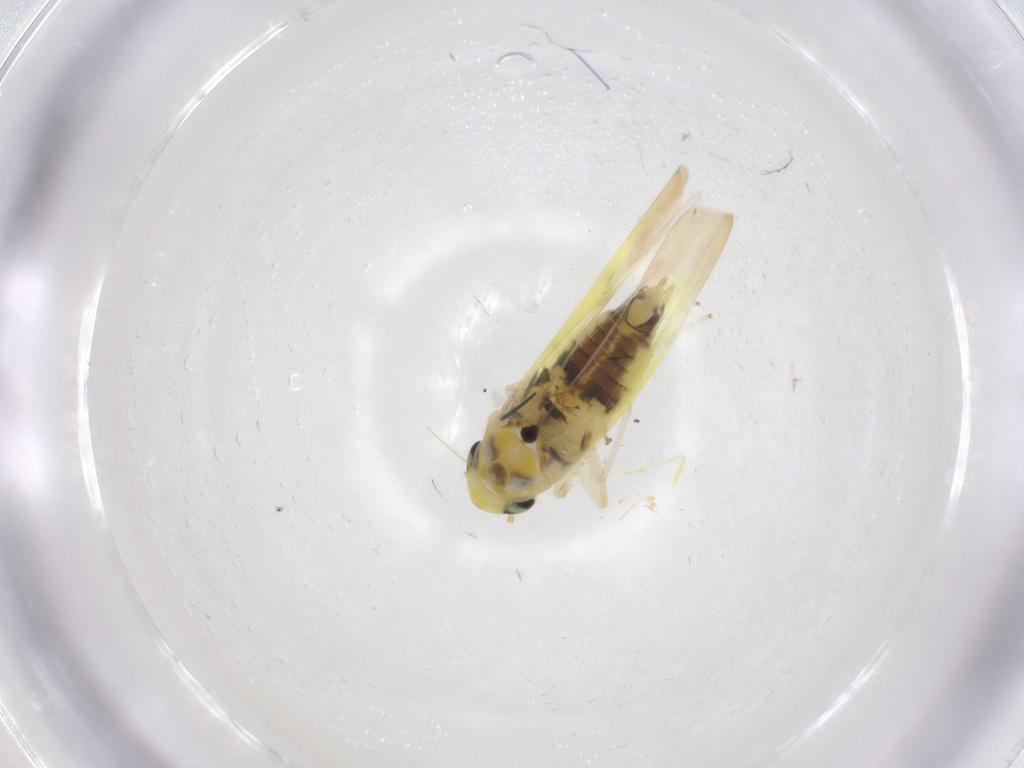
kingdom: Animalia
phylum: Arthropoda
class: Insecta
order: Hemiptera
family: Cicadellidae
